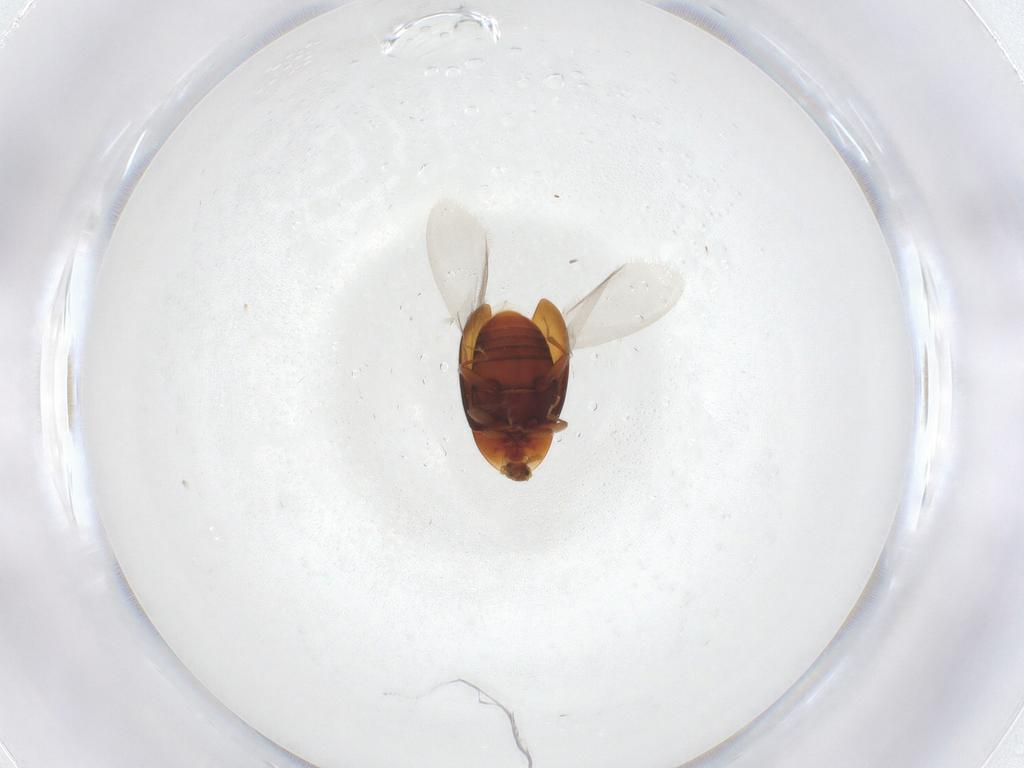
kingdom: Animalia
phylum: Arthropoda
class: Insecta
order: Coleoptera
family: Corylophidae
